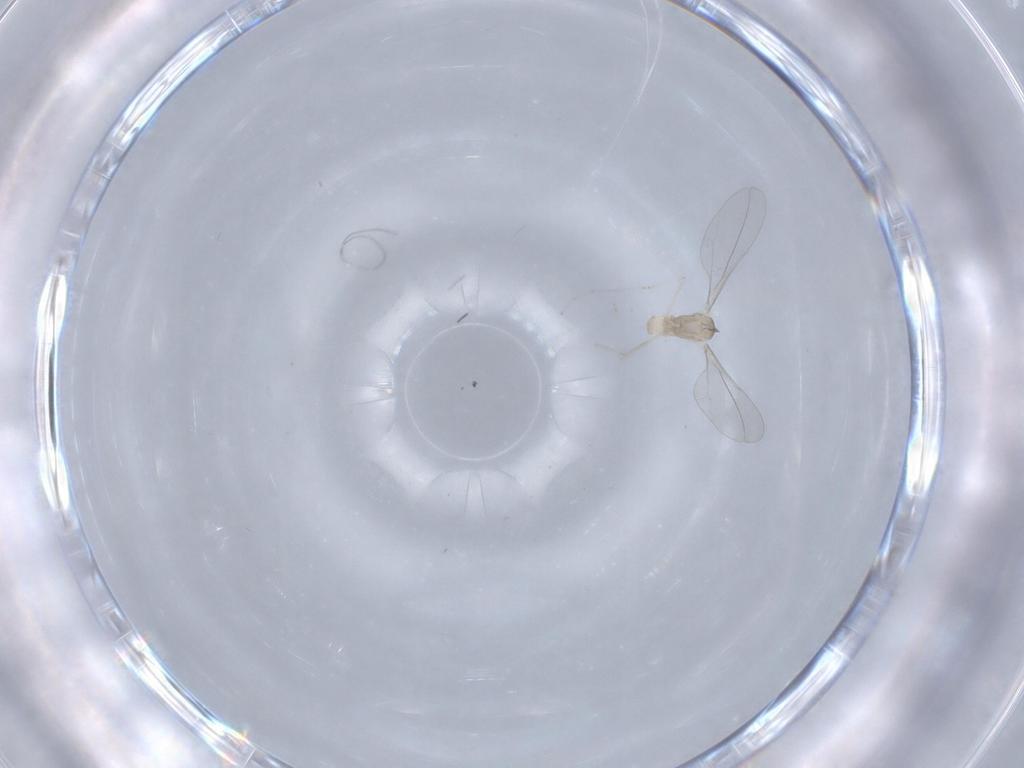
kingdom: Animalia
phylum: Arthropoda
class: Insecta
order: Diptera
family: Cecidomyiidae
